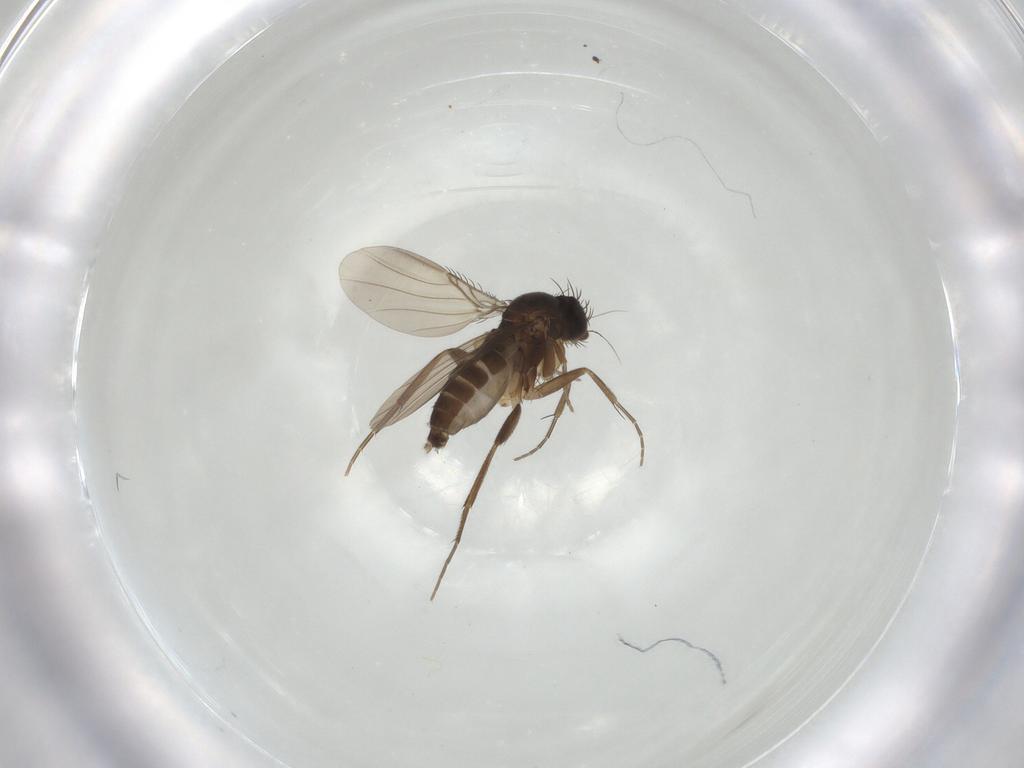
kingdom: Animalia
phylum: Arthropoda
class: Insecta
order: Diptera
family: Phoridae
